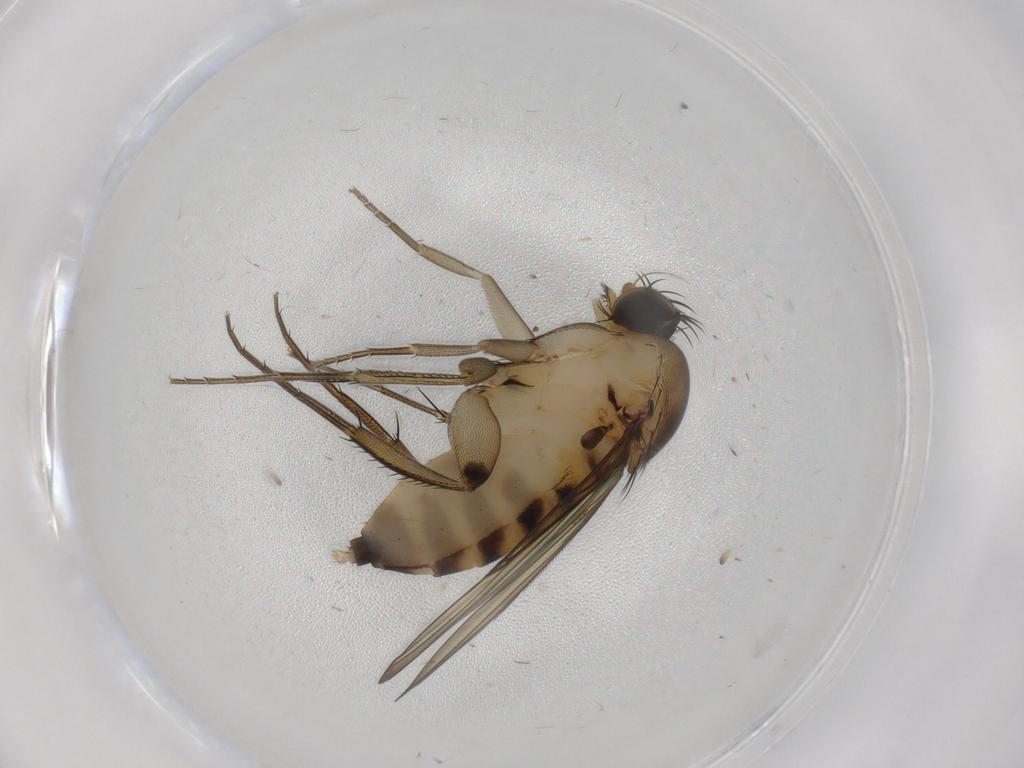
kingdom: Animalia
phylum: Arthropoda
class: Insecta
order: Diptera
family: Phoridae
